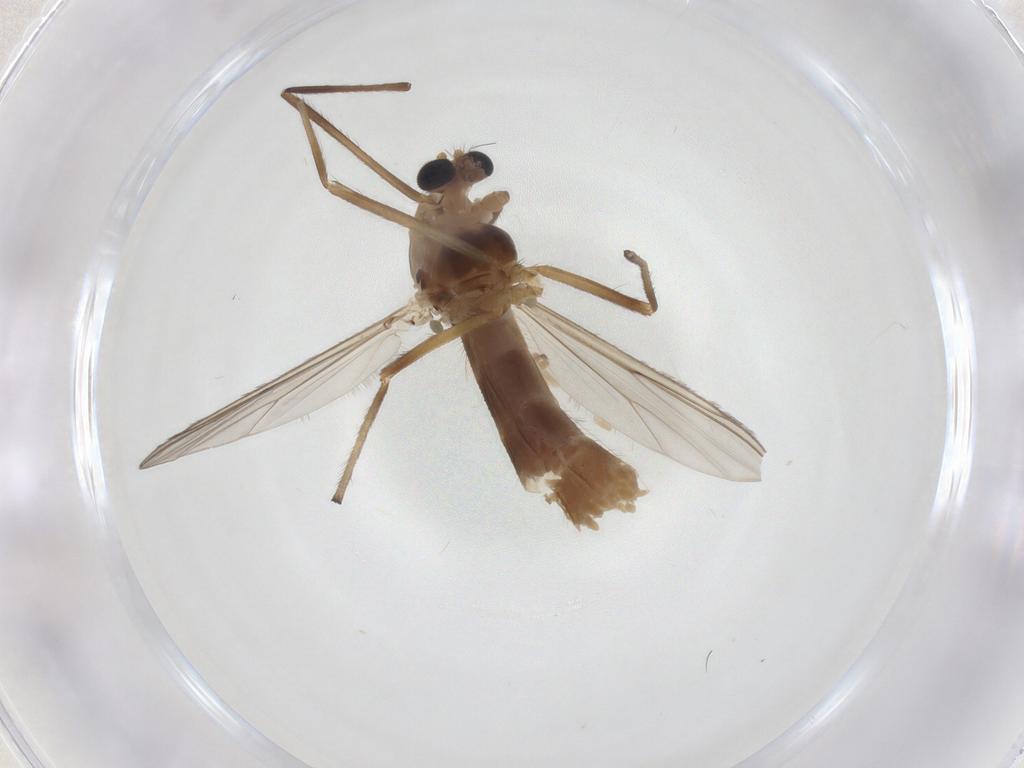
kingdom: Animalia
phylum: Arthropoda
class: Insecta
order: Diptera
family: Chironomidae
